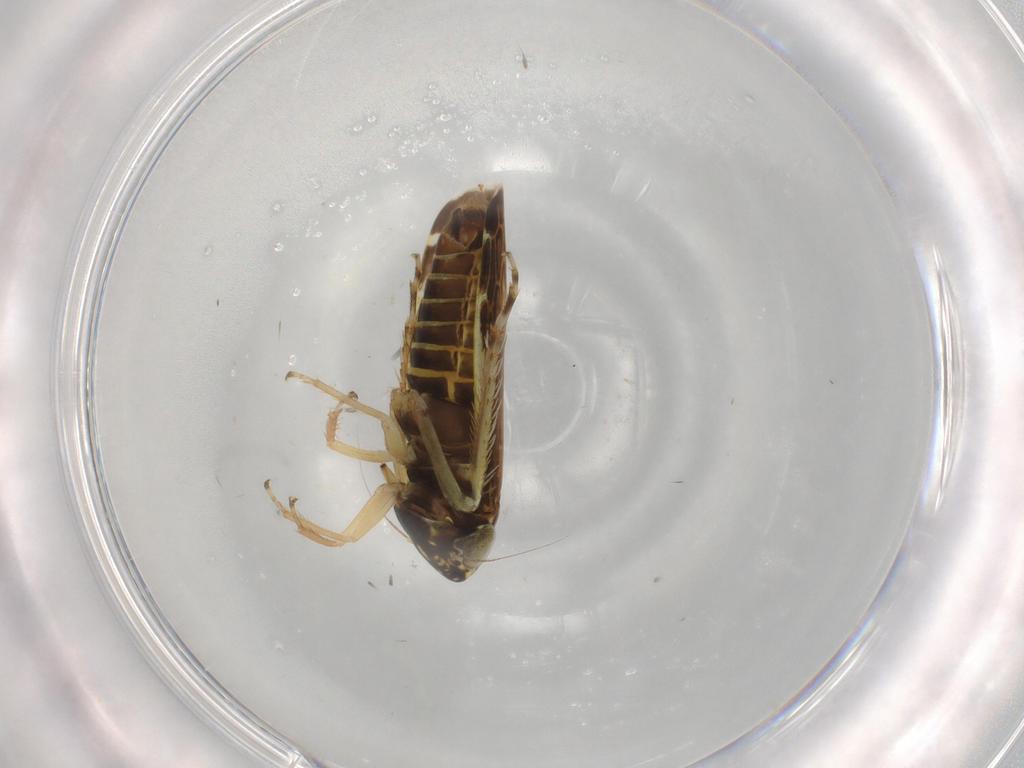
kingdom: Animalia
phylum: Arthropoda
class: Insecta
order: Hemiptera
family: Cicadellidae
